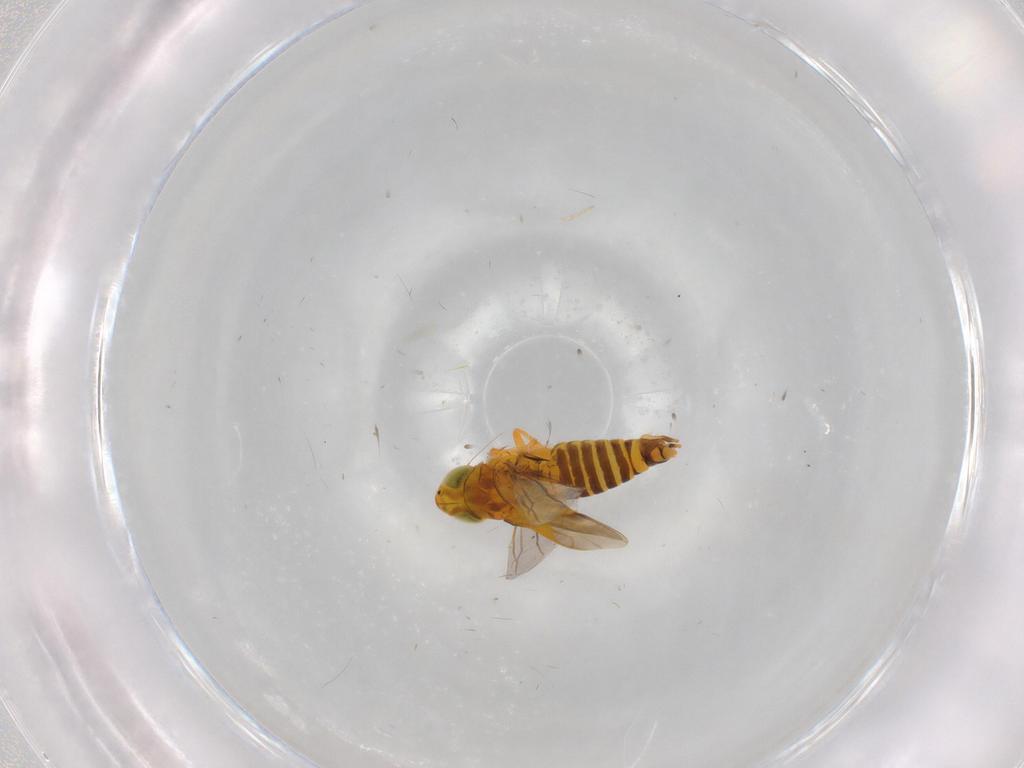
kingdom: Animalia
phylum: Arthropoda
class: Insecta
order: Hemiptera
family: Cicadellidae
